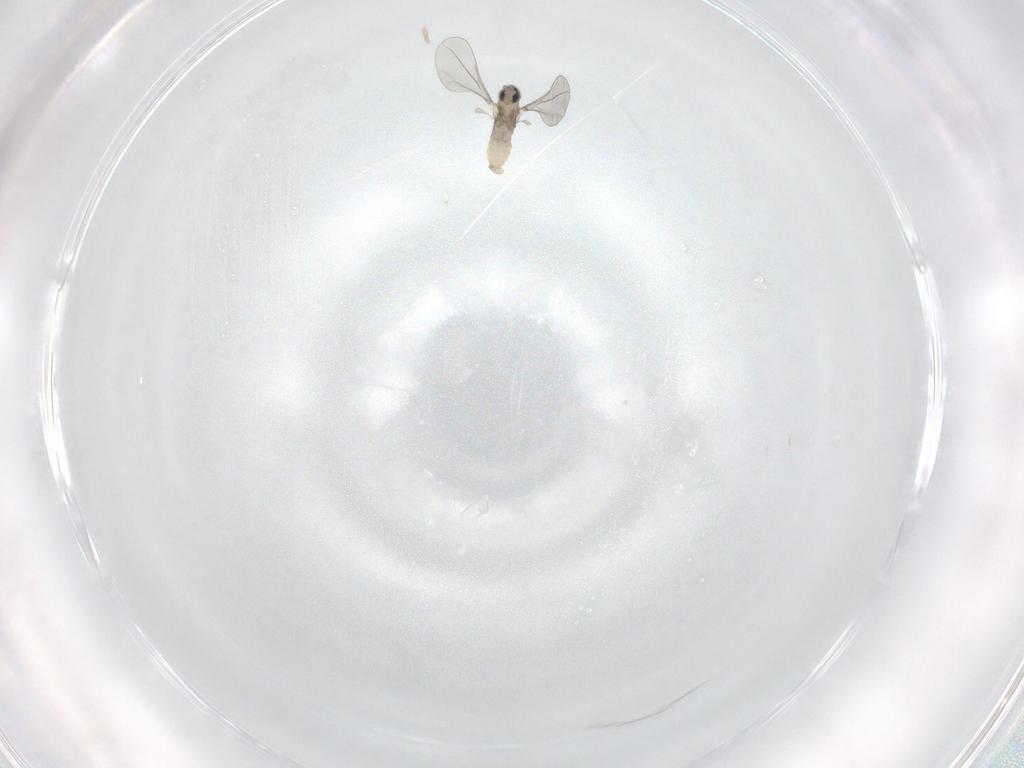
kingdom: Animalia
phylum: Arthropoda
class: Insecta
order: Diptera
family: Cecidomyiidae
